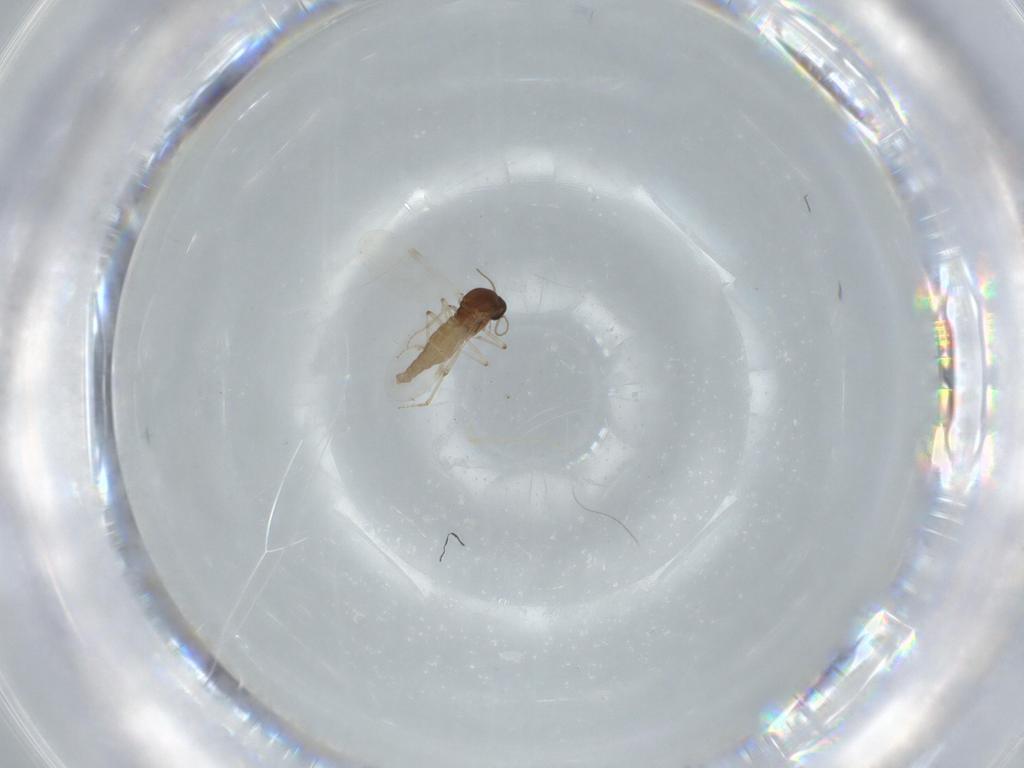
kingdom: Animalia
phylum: Arthropoda
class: Insecta
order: Diptera
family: Ceratopogonidae
